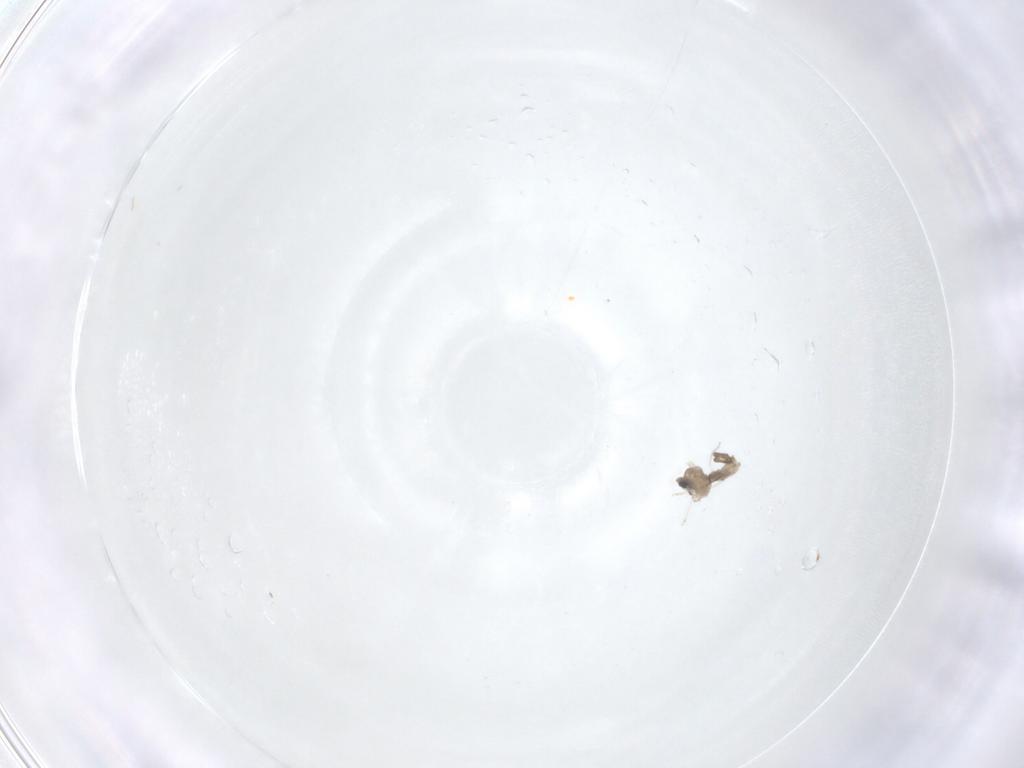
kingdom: Animalia
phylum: Arthropoda
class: Insecta
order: Diptera
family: Cecidomyiidae
